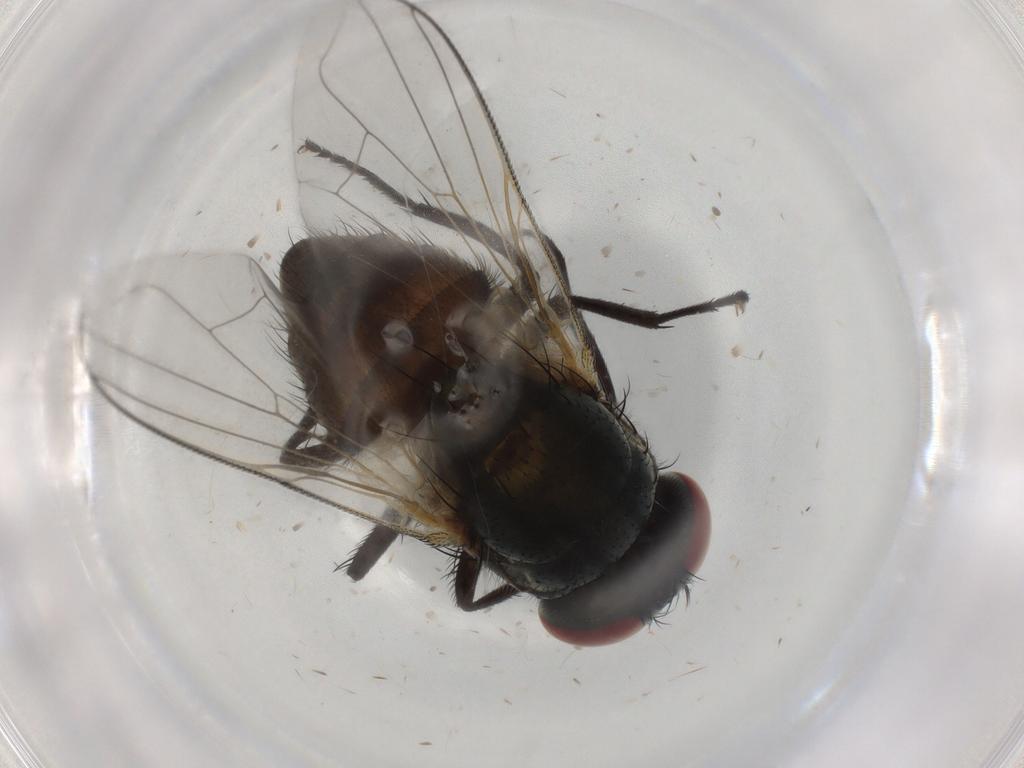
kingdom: Animalia
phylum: Arthropoda
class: Insecta
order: Diptera
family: Muscidae
